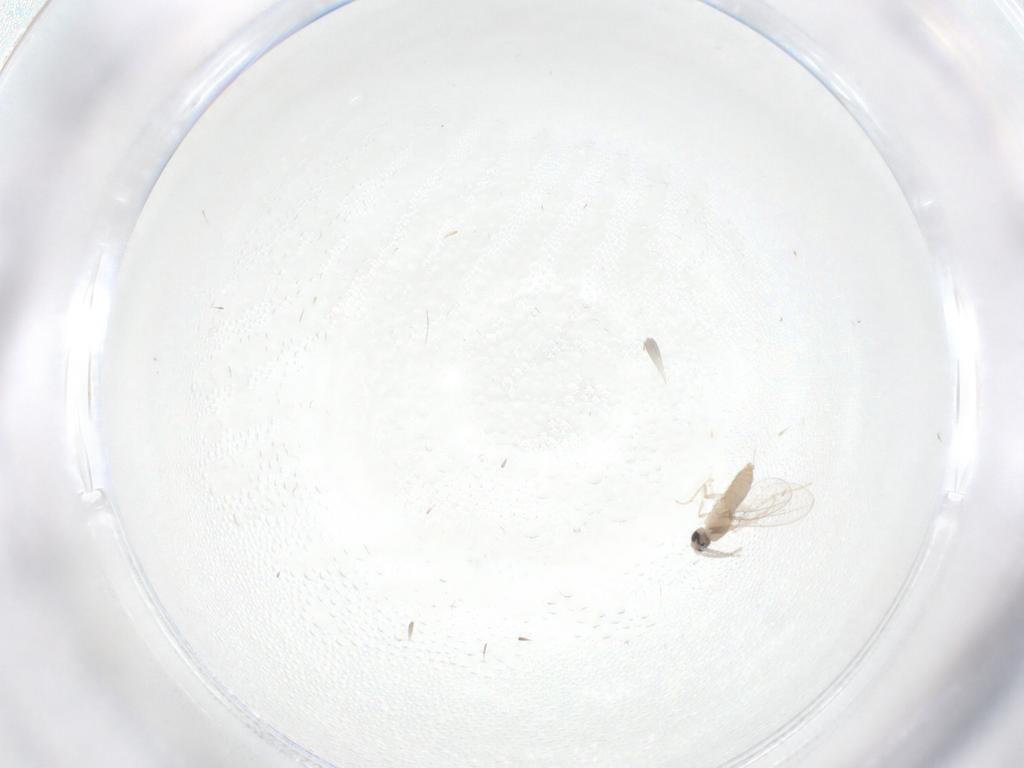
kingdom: Animalia
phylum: Arthropoda
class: Insecta
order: Diptera
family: Cecidomyiidae
